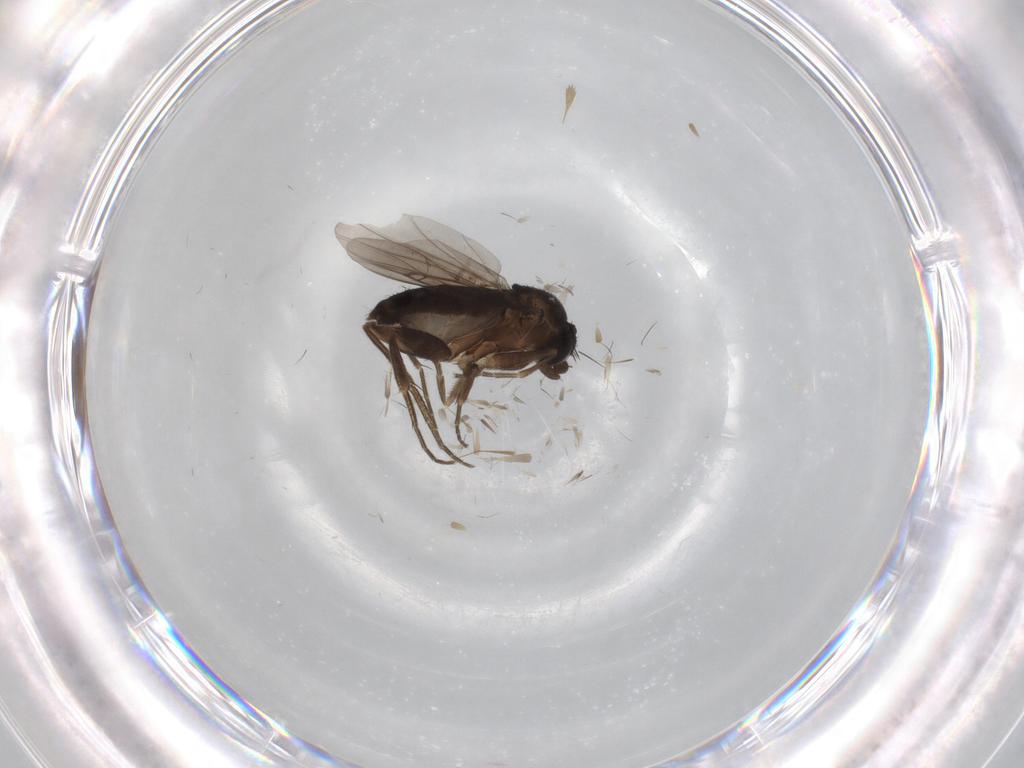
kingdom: Animalia
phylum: Arthropoda
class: Insecta
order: Diptera
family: Phoridae
